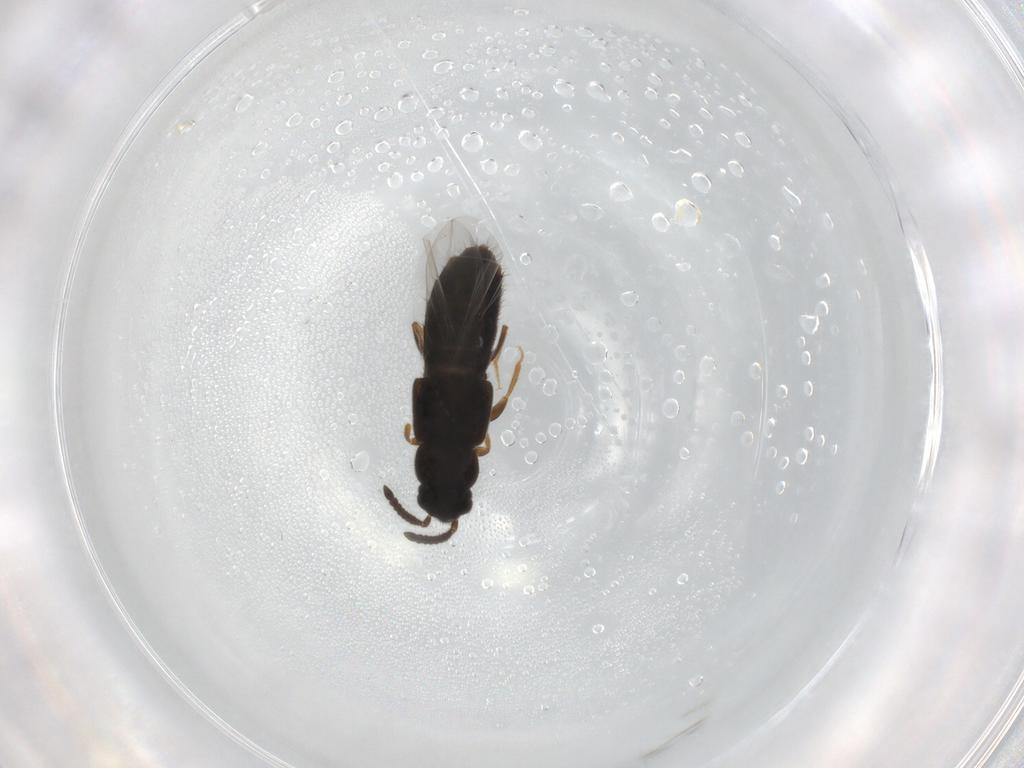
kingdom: Animalia
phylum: Arthropoda
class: Insecta
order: Coleoptera
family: Staphylinidae
